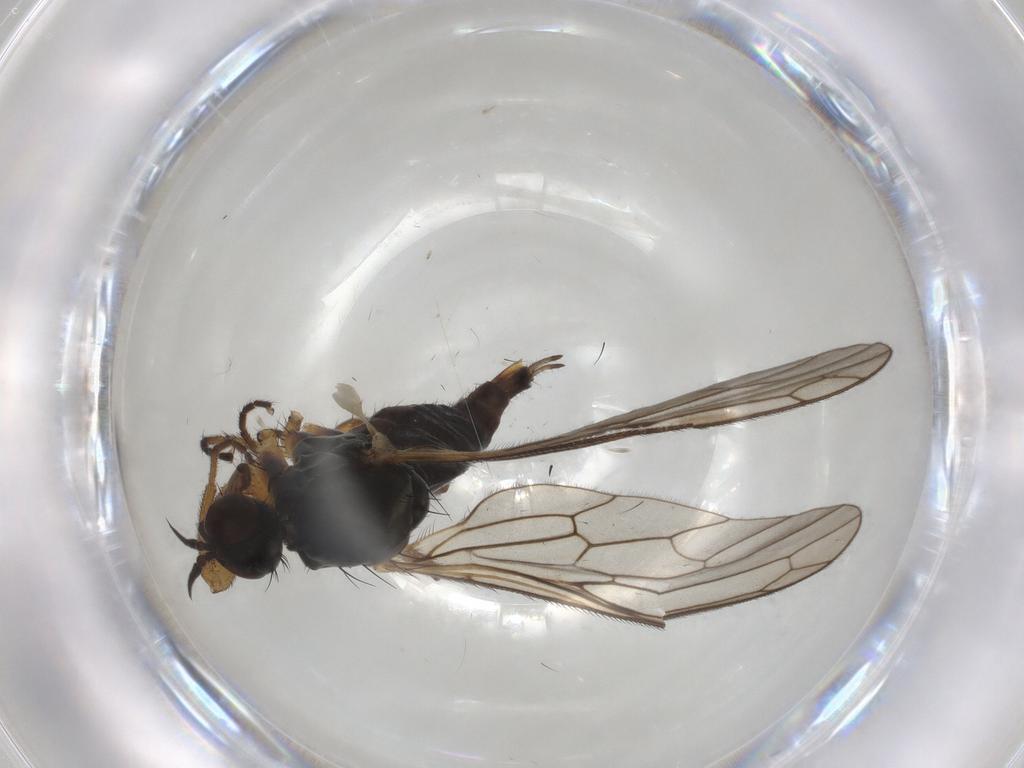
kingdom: Animalia
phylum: Arthropoda
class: Insecta
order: Diptera
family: Empididae
